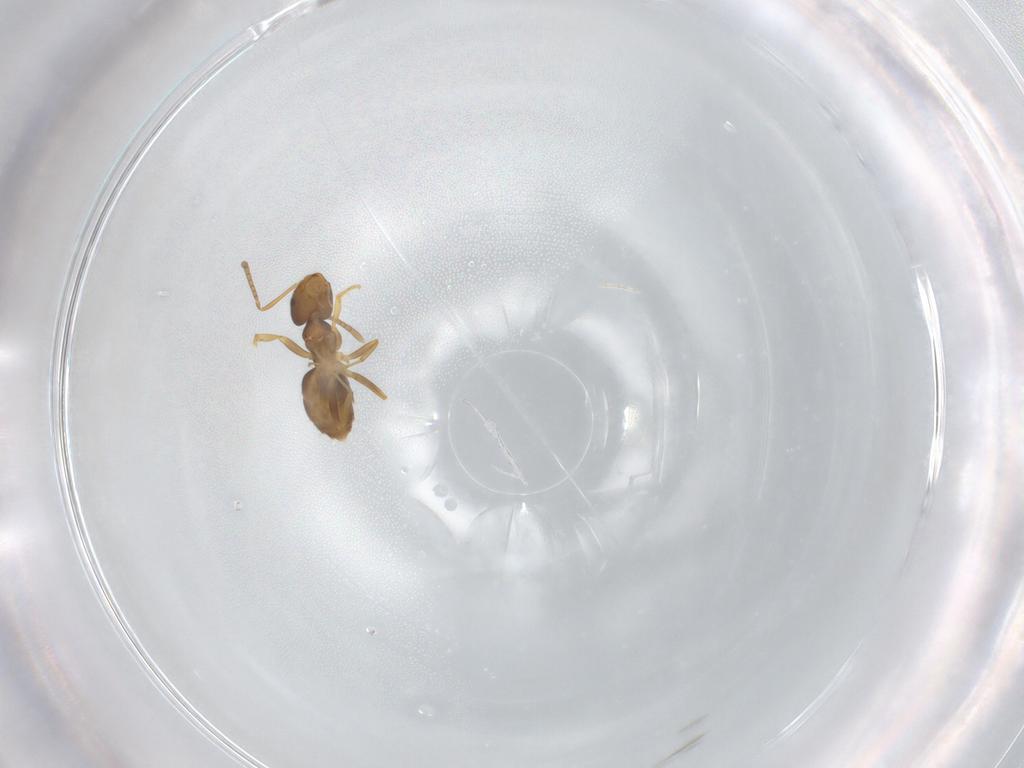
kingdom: Animalia
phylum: Arthropoda
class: Insecta
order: Hymenoptera
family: Formicidae
